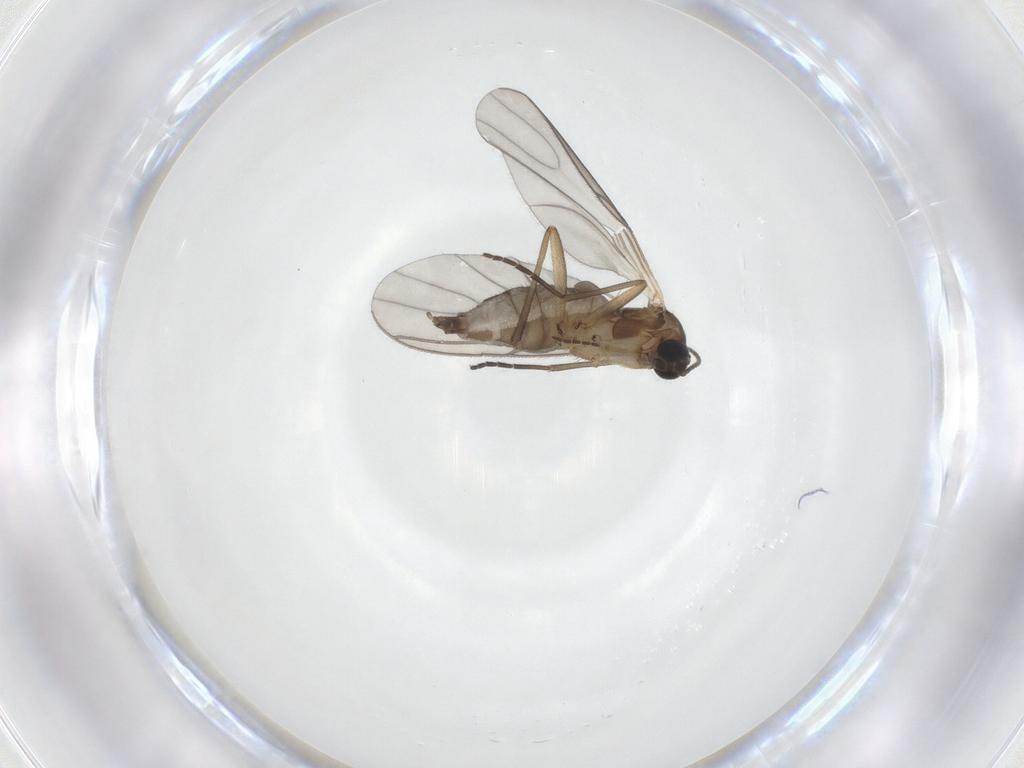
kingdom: Animalia
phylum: Arthropoda
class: Insecta
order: Diptera
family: Sciaridae
